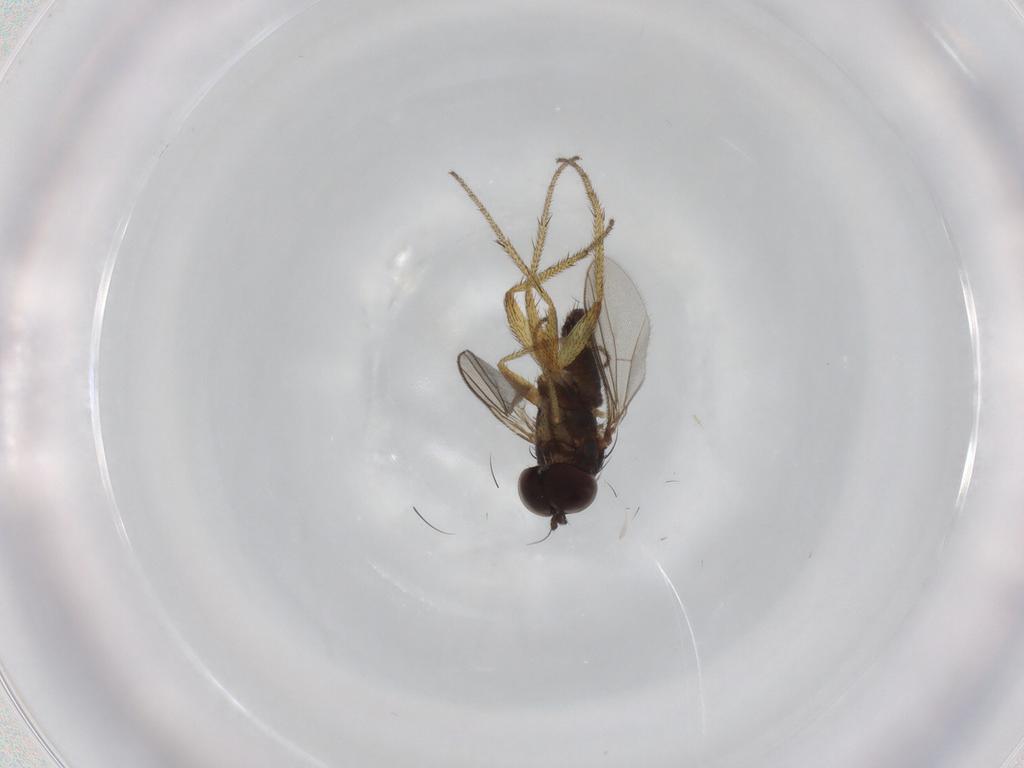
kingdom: Animalia
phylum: Arthropoda
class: Insecta
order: Diptera
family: Dolichopodidae
